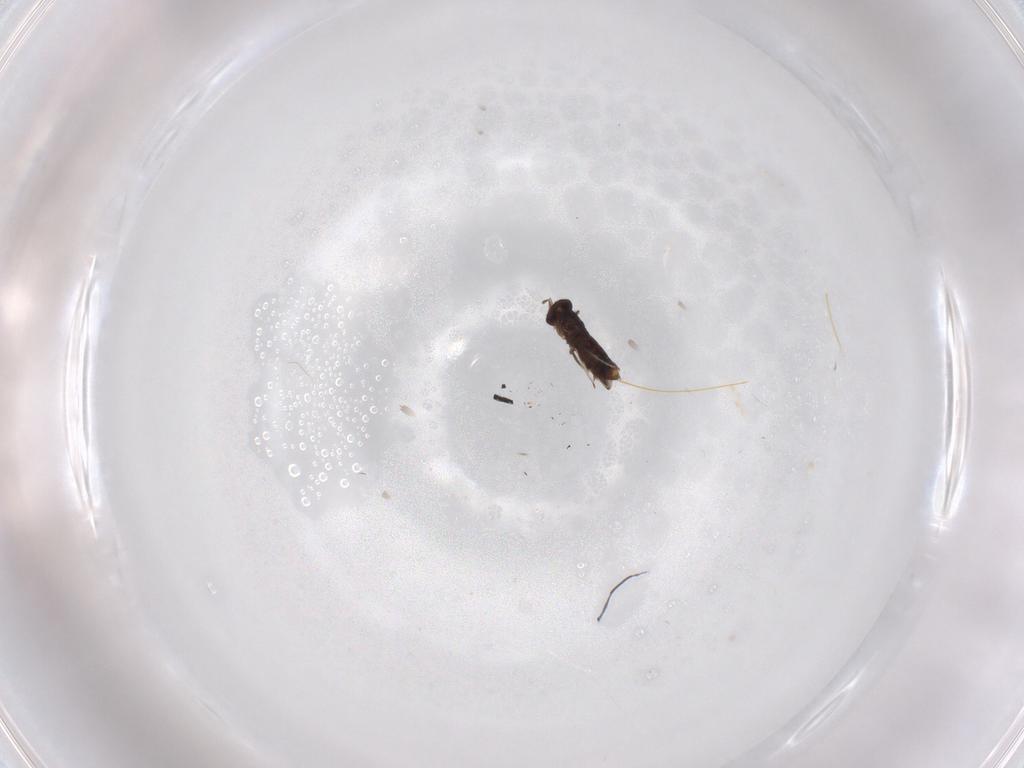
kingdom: Animalia
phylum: Arthropoda
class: Insecta
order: Hymenoptera
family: Azotidae
